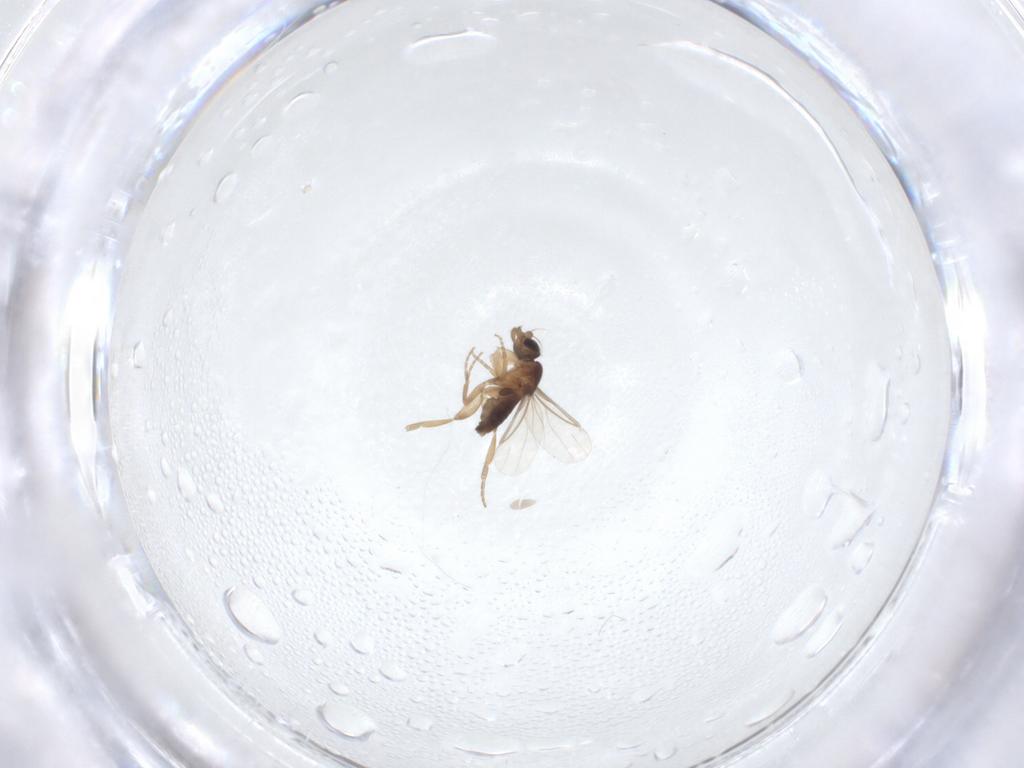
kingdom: Animalia
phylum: Arthropoda
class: Insecta
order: Diptera
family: Phoridae
